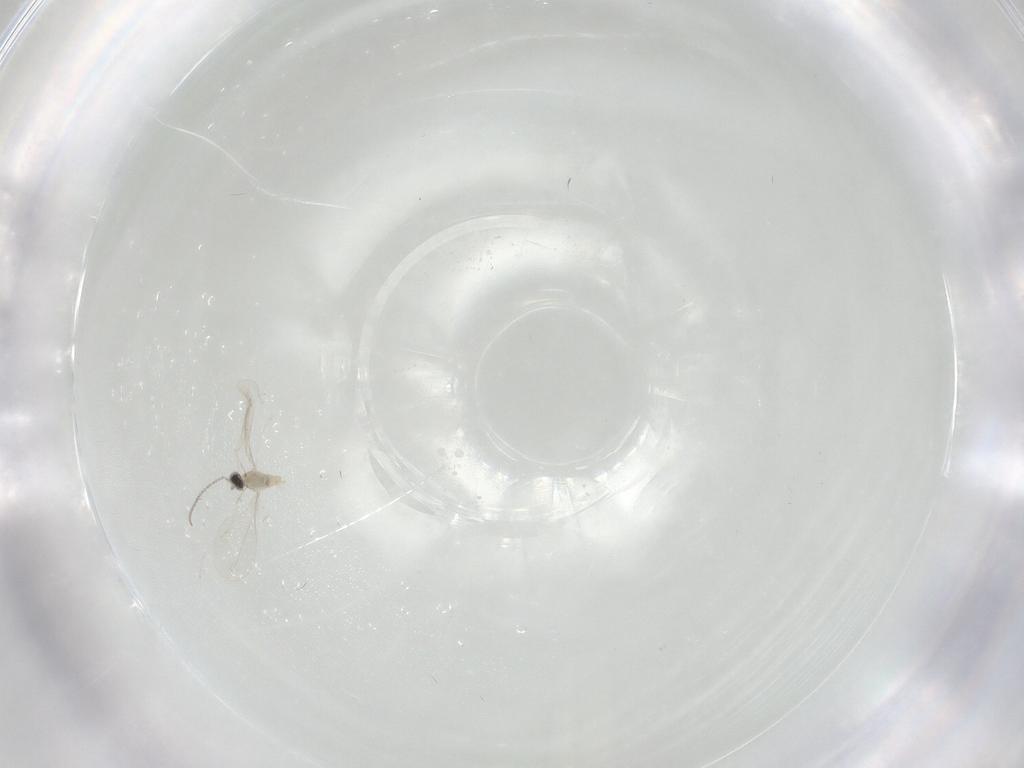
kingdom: Animalia
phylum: Arthropoda
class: Insecta
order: Diptera
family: Cecidomyiidae
